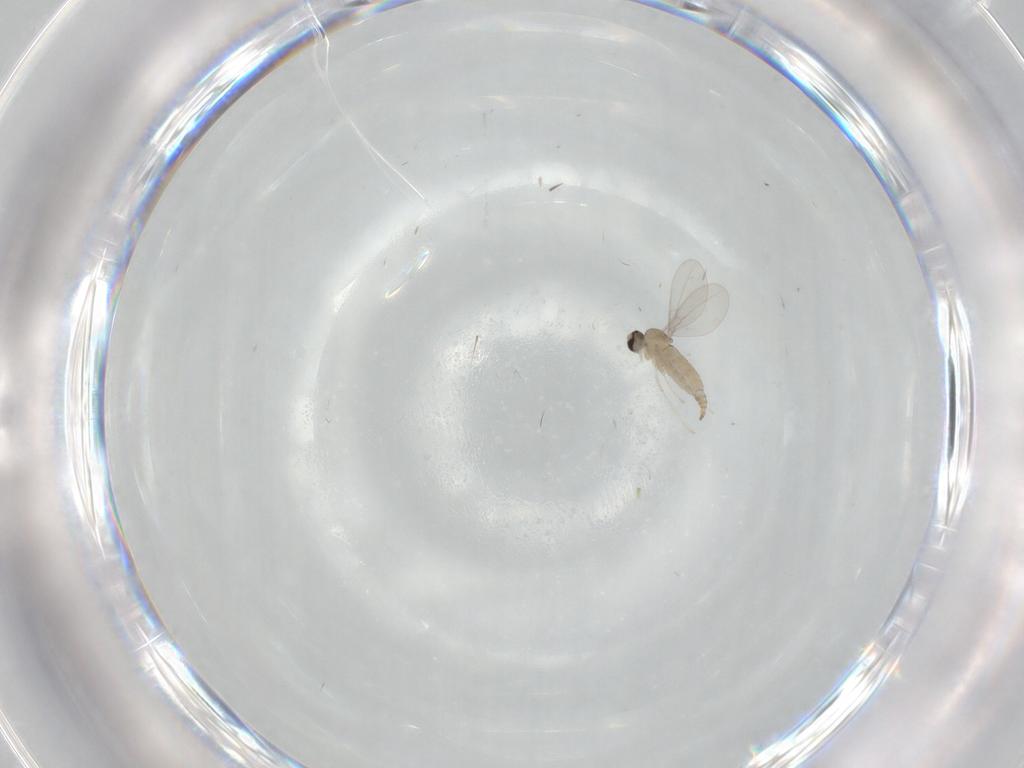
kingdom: Animalia
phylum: Arthropoda
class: Insecta
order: Diptera
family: Cecidomyiidae
